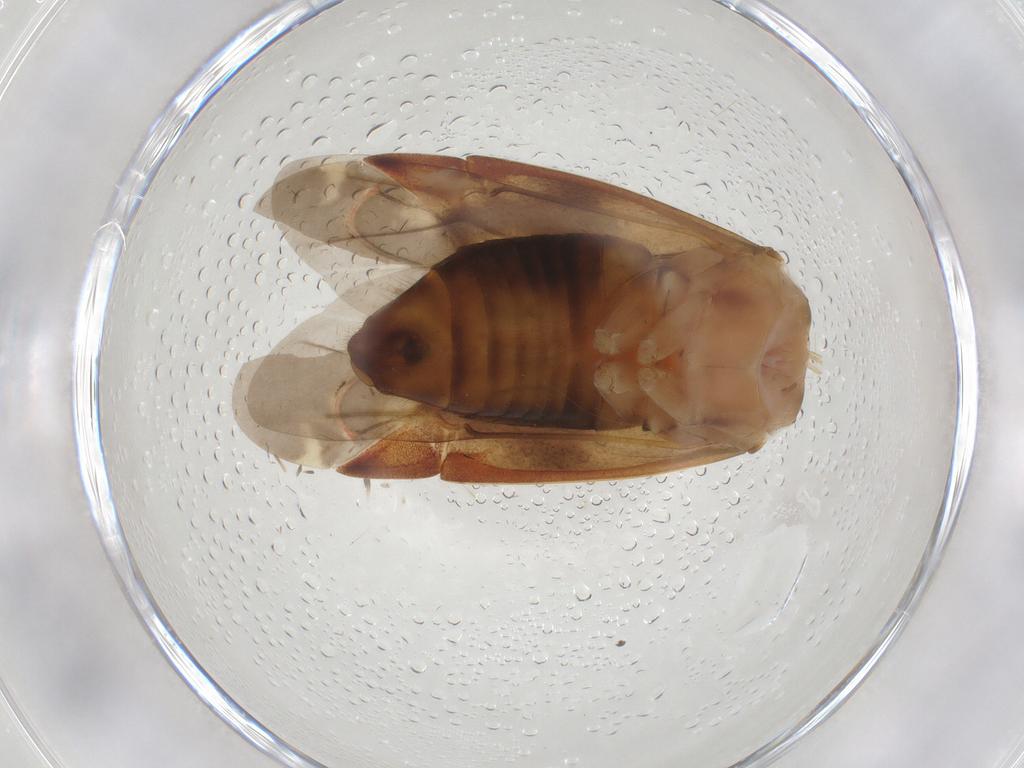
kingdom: Animalia
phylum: Arthropoda
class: Insecta
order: Hemiptera
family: Miridae
